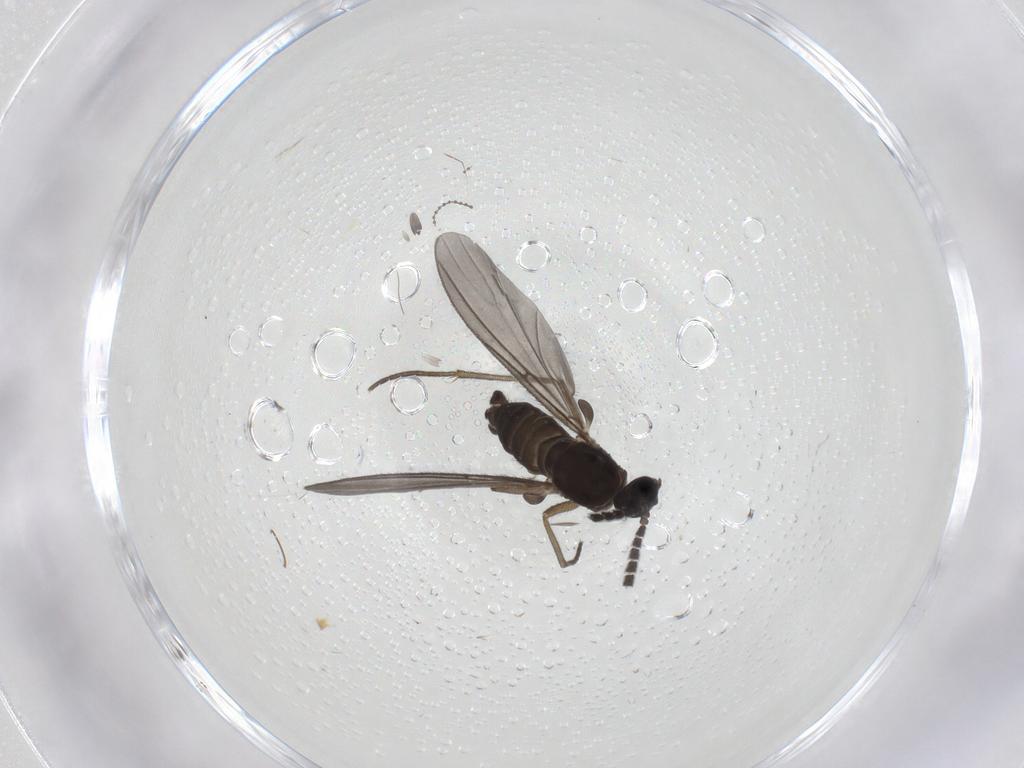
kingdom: Animalia
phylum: Arthropoda
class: Insecta
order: Diptera
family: Sciaridae
